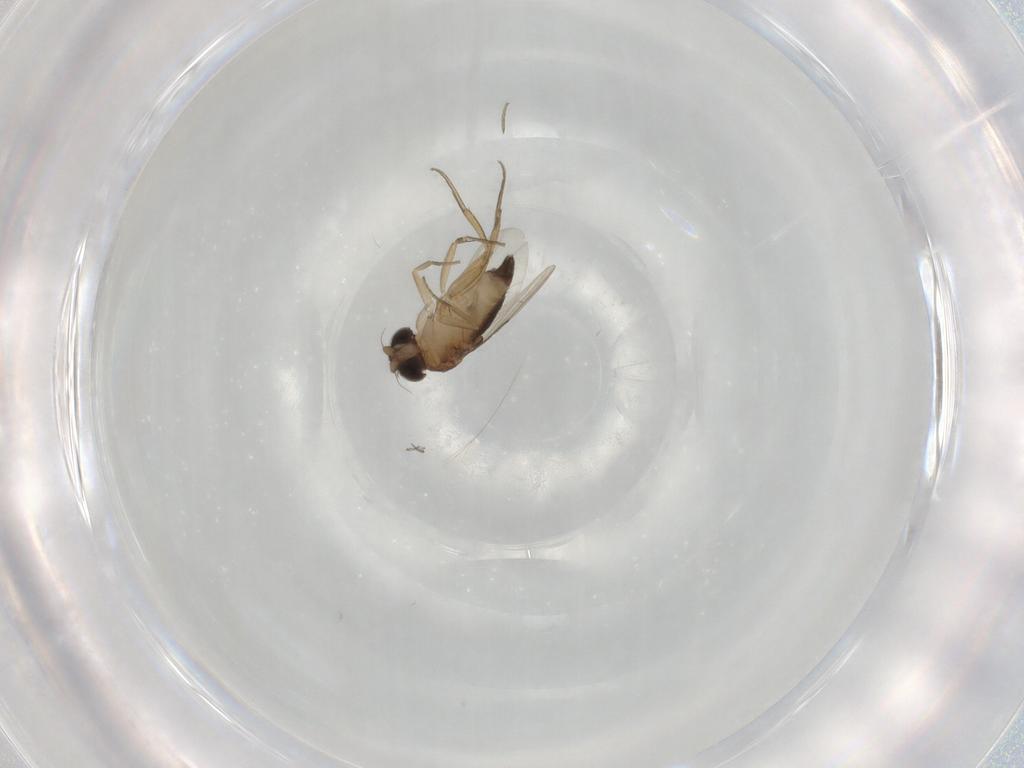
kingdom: Animalia
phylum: Arthropoda
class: Insecta
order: Diptera
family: Phoridae
